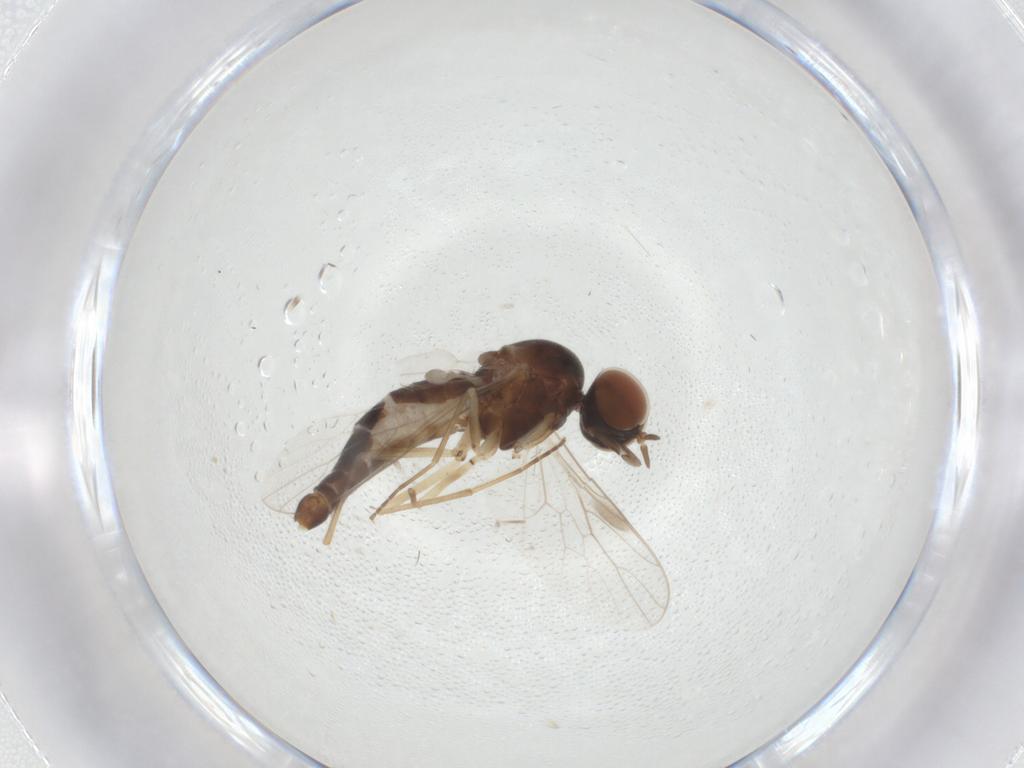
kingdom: Animalia
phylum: Arthropoda
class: Insecta
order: Diptera
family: Scenopinidae
